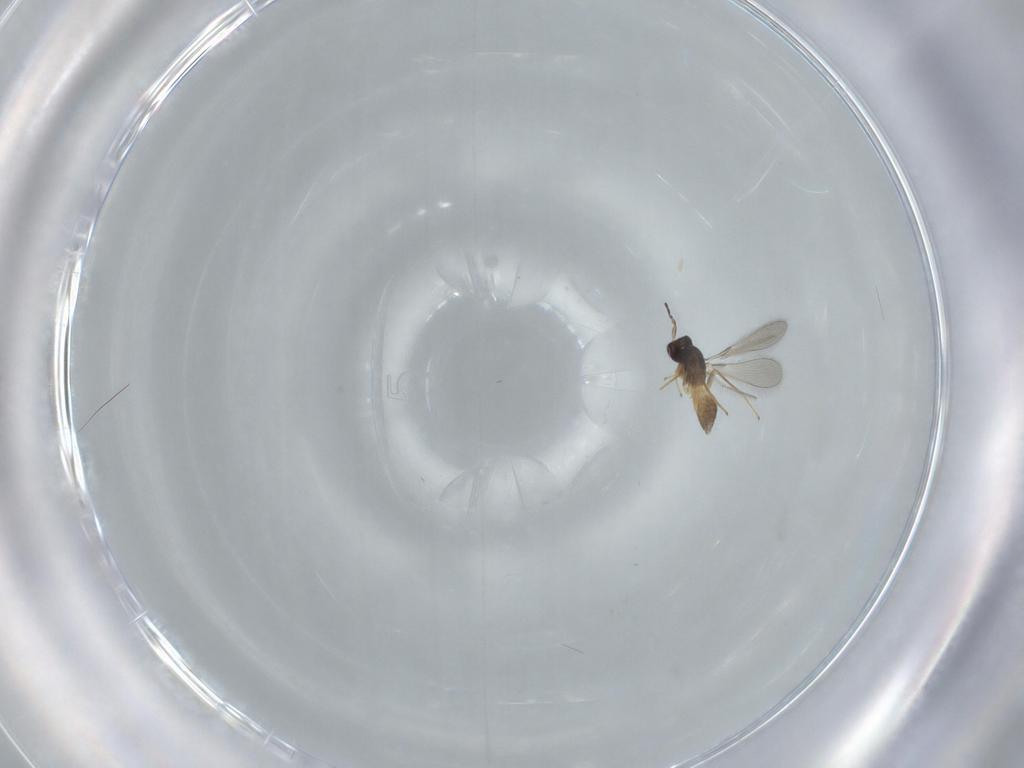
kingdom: Animalia
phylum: Arthropoda
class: Insecta
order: Hymenoptera
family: Mymaridae
